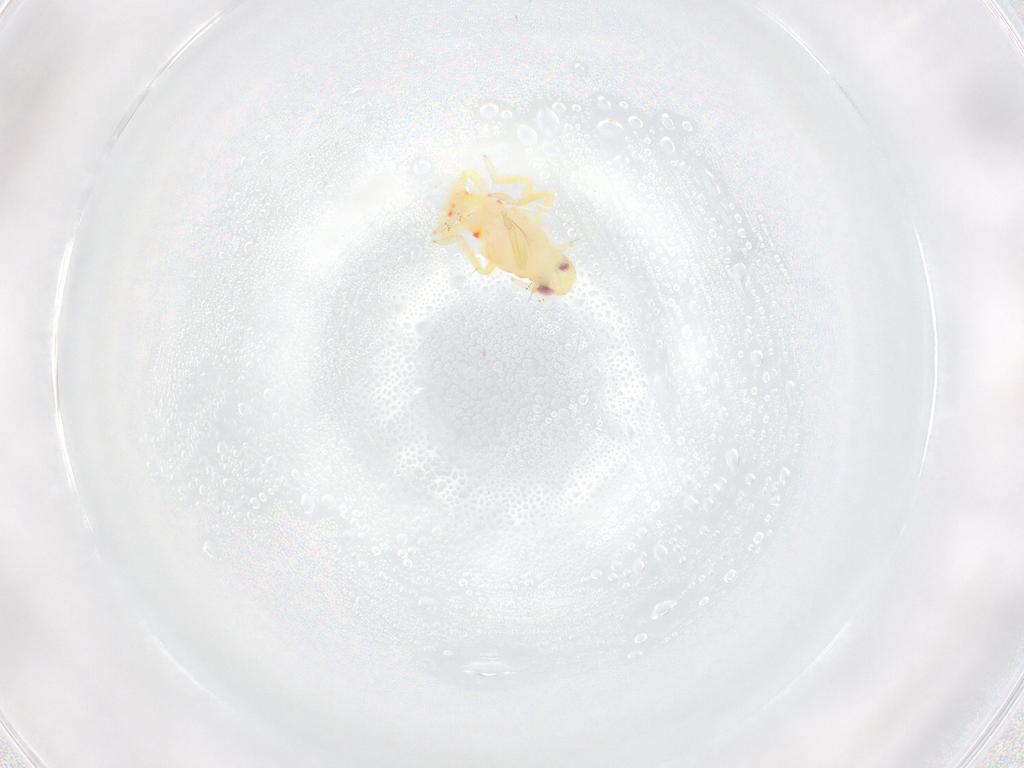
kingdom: Animalia
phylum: Arthropoda
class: Insecta
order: Hemiptera
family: Tropiduchidae
